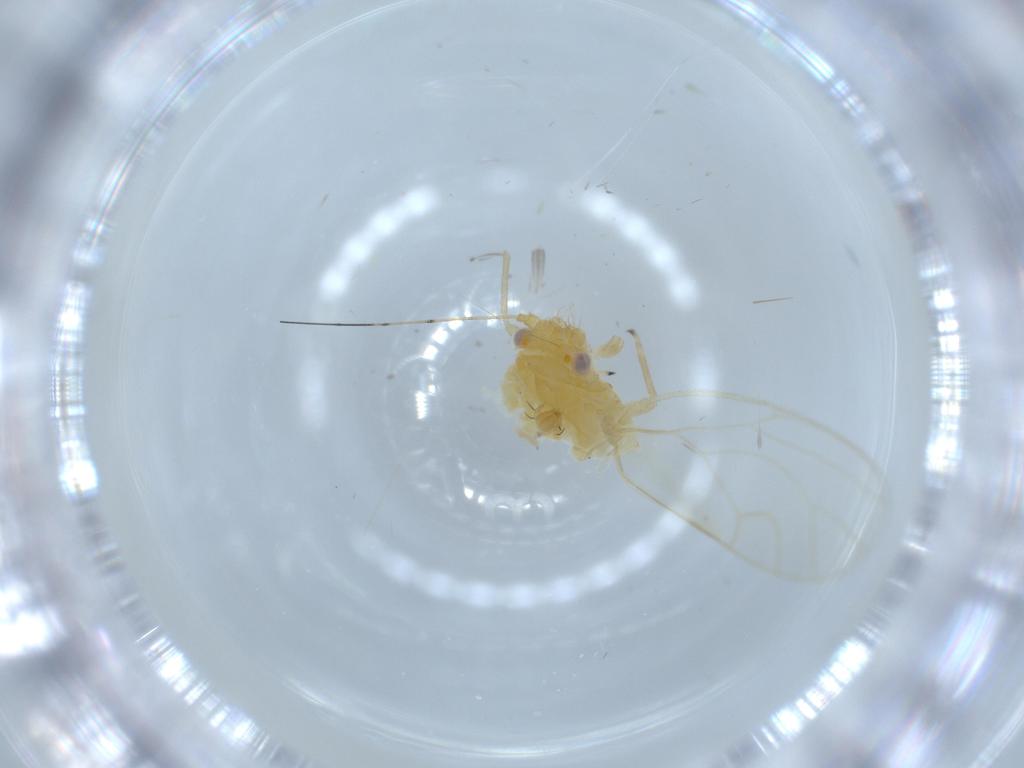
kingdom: Animalia
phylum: Arthropoda
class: Insecta
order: Hemiptera
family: Psyllidae
